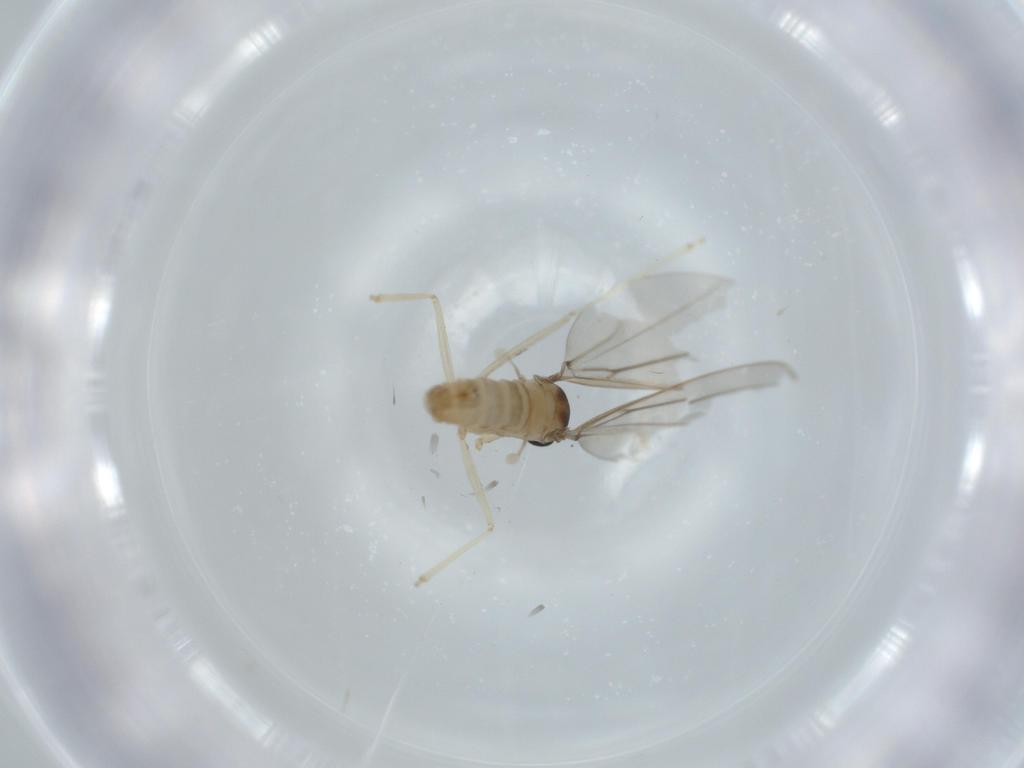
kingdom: Animalia
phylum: Arthropoda
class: Insecta
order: Diptera
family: Cecidomyiidae
